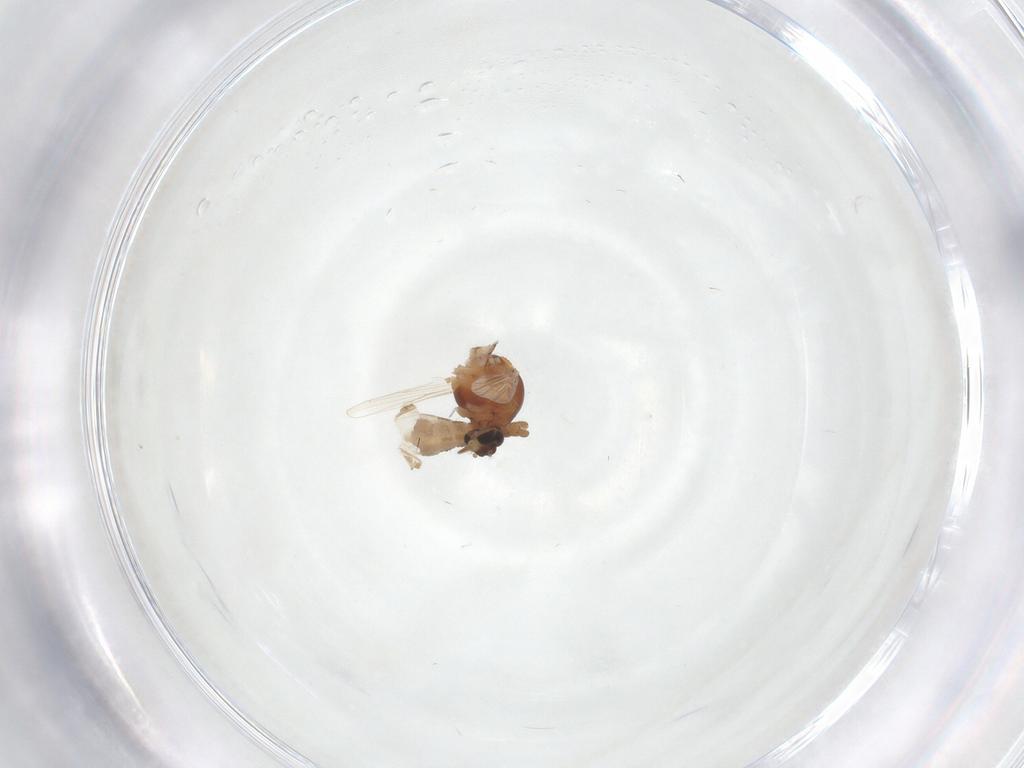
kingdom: Animalia
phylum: Arthropoda
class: Insecta
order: Diptera
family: Ceratopogonidae
